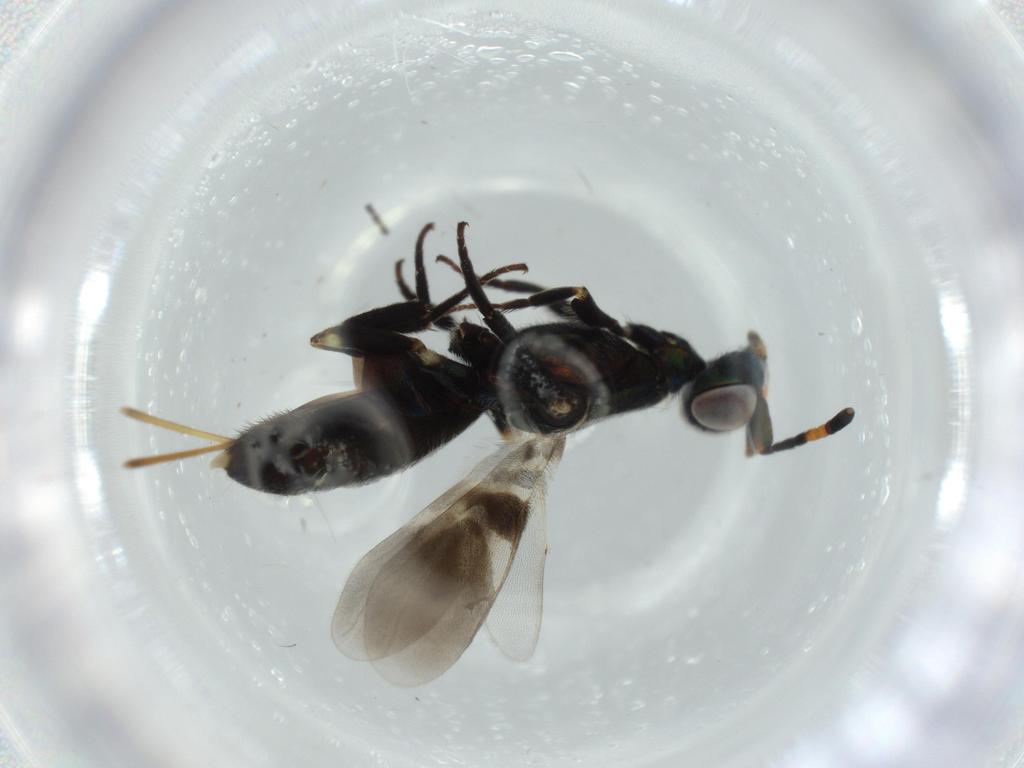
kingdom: Animalia
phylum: Arthropoda
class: Insecta
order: Hymenoptera
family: Eupelmidae
